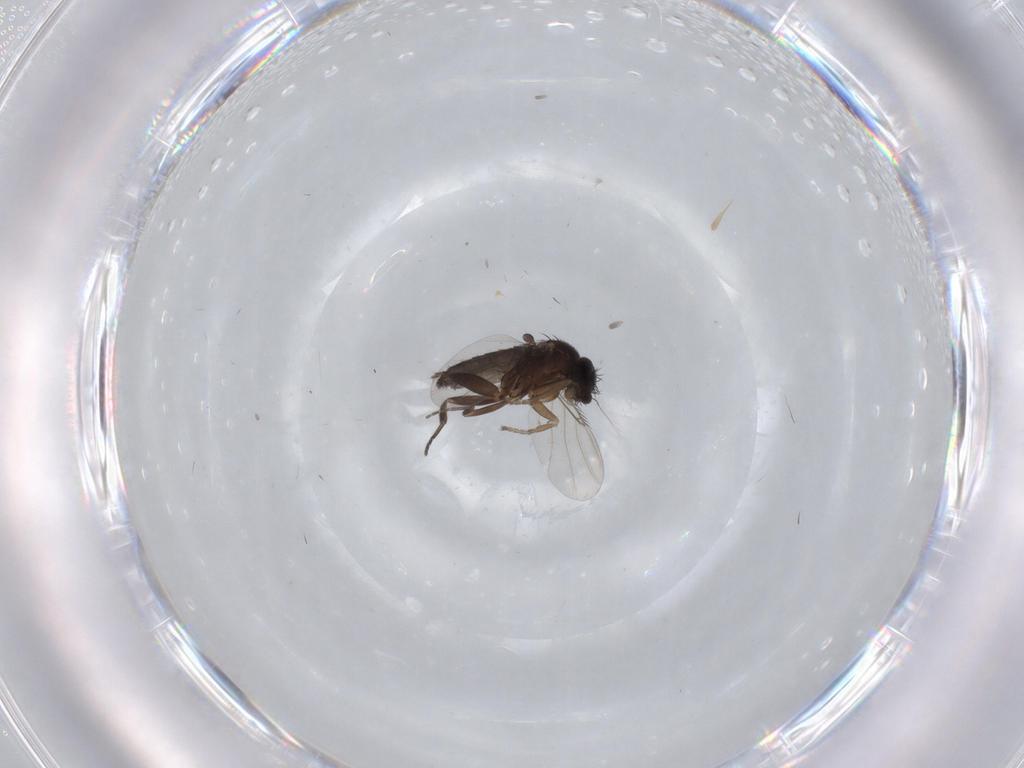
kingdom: Animalia
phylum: Arthropoda
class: Insecta
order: Diptera
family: Phoridae
